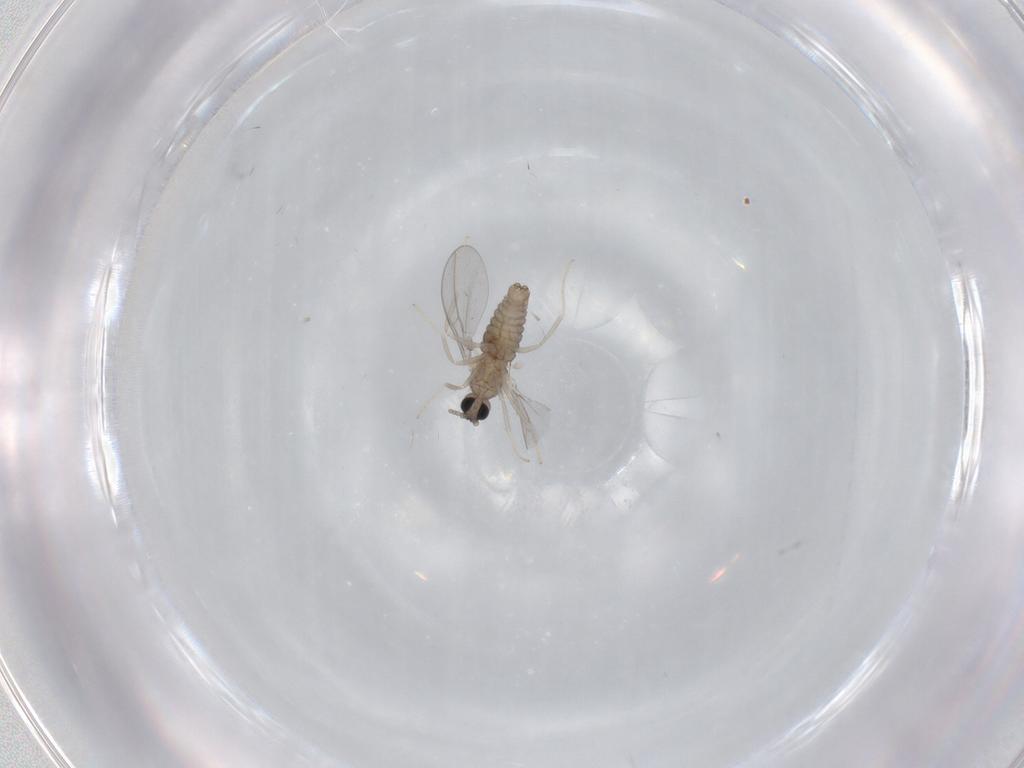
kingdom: Animalia
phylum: Arthropoda
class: Insecta
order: Diptera
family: Cecidomyiidae
